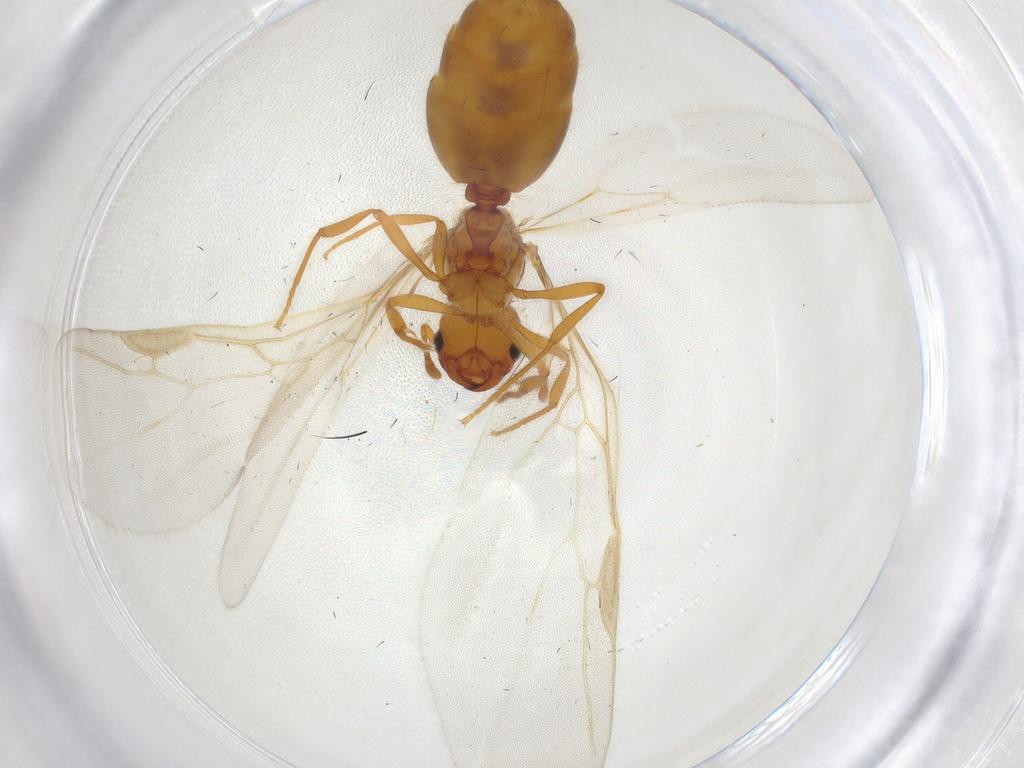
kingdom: Animalia
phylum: Arthropoda
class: Insecta
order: Hymenoptera
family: Formicidae
